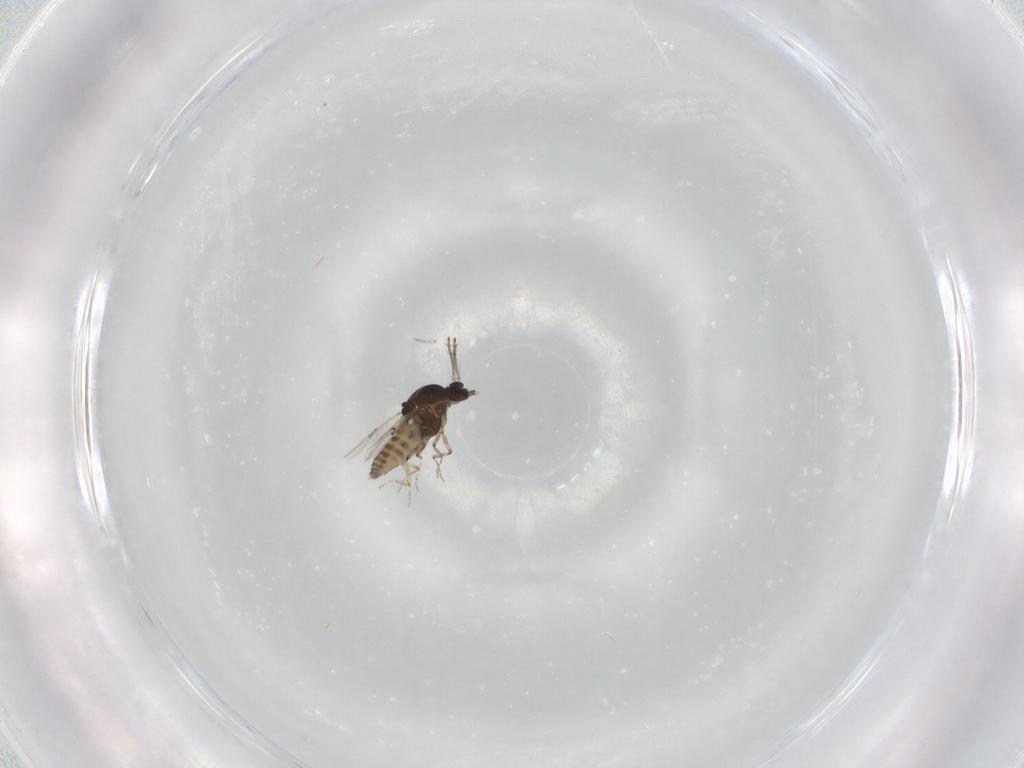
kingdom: Animalia
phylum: Arthropoda
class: Insecta
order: Diptera
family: Ceratopogonidae
